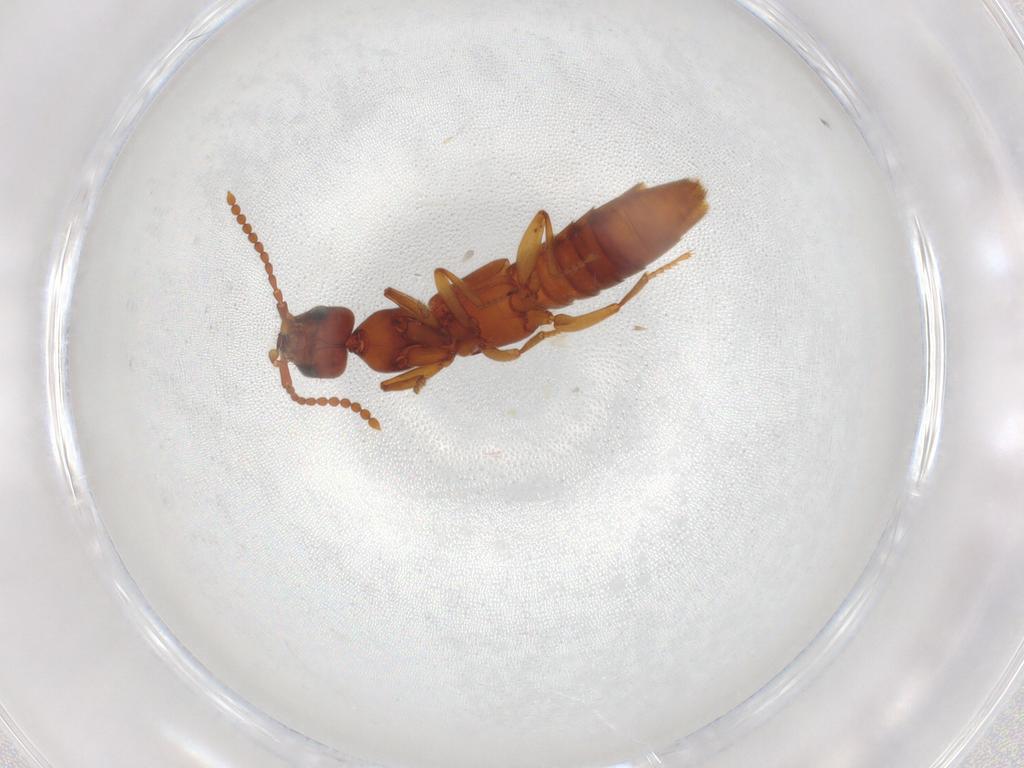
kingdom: Animalia
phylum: Arthropoda
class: Insecta
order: Coleoptera
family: Staphylinidae
